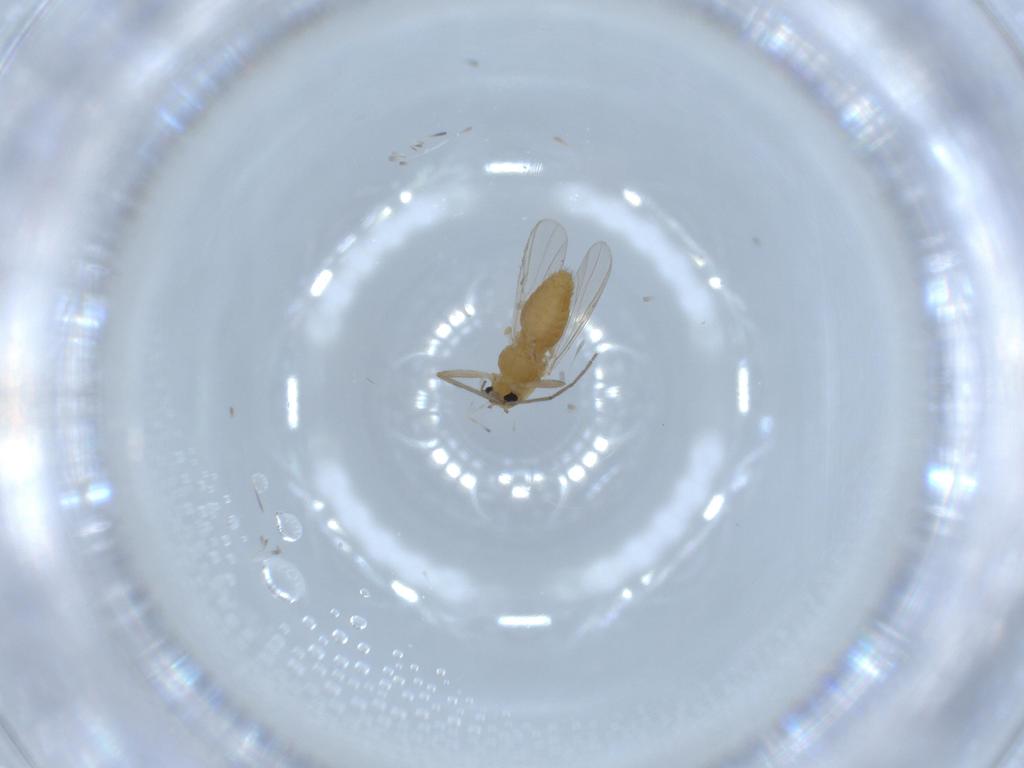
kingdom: Animalia
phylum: Arthropoda
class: Insecta
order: Diptera
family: Chironomidae
